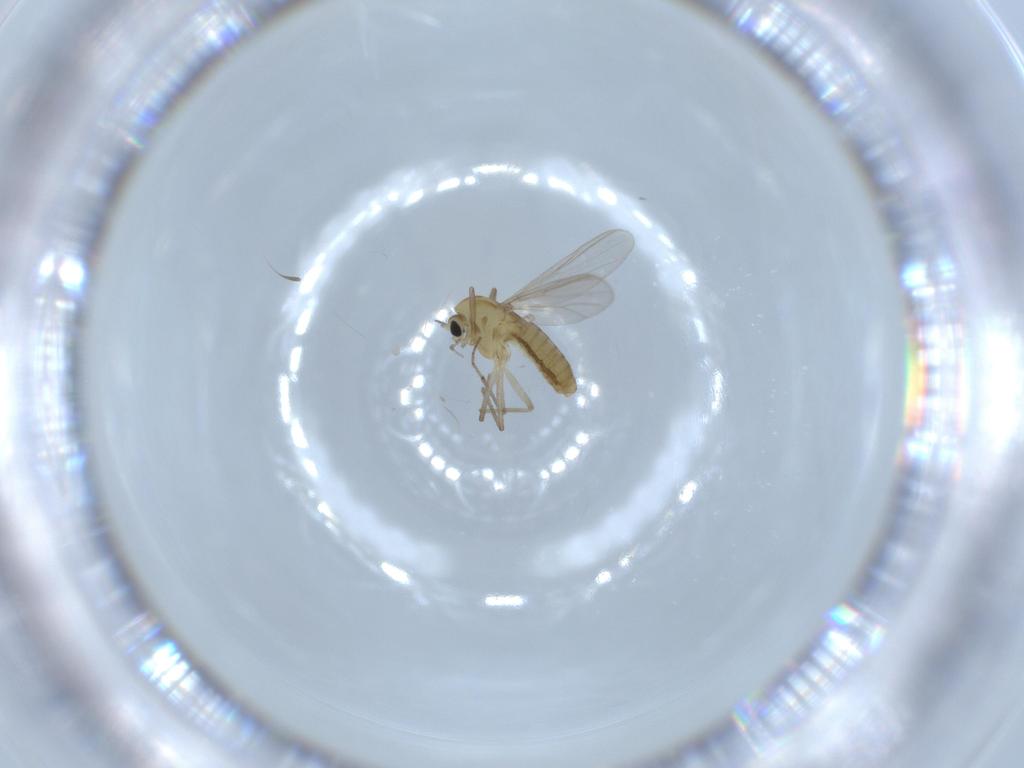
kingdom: Animalia
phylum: Arthropoda
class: Insecta
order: Diptera
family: Chironomidae
